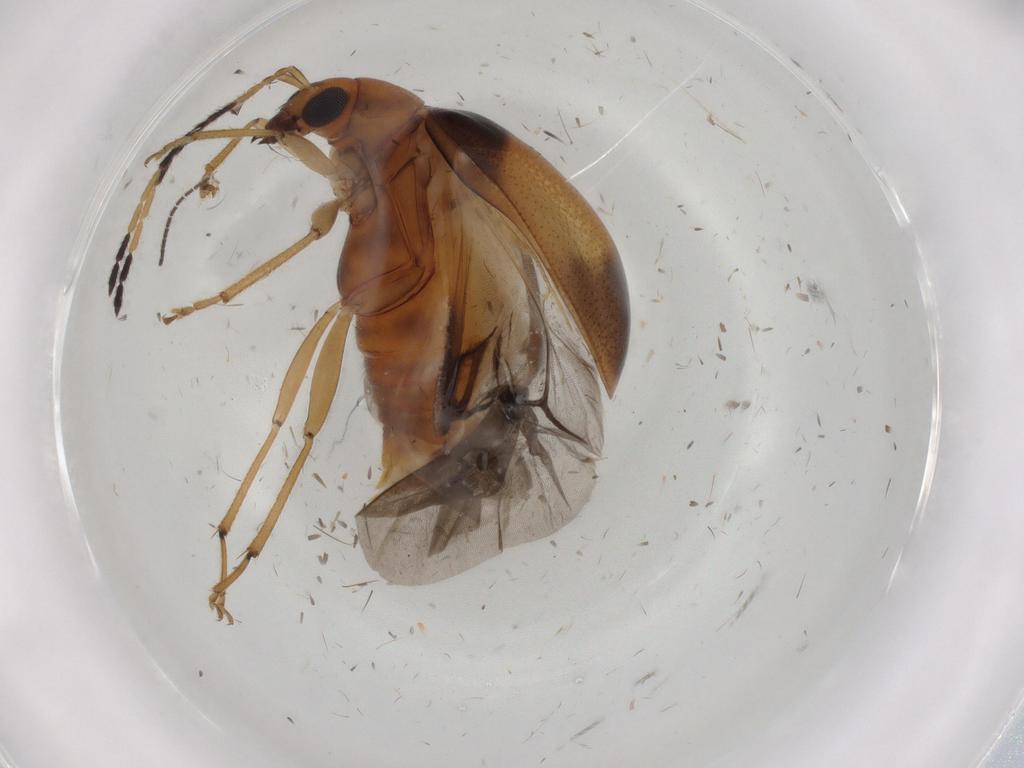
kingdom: Animalia
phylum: Arthropoda
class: Insecta
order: Coleoptera
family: Chrysomelidae
